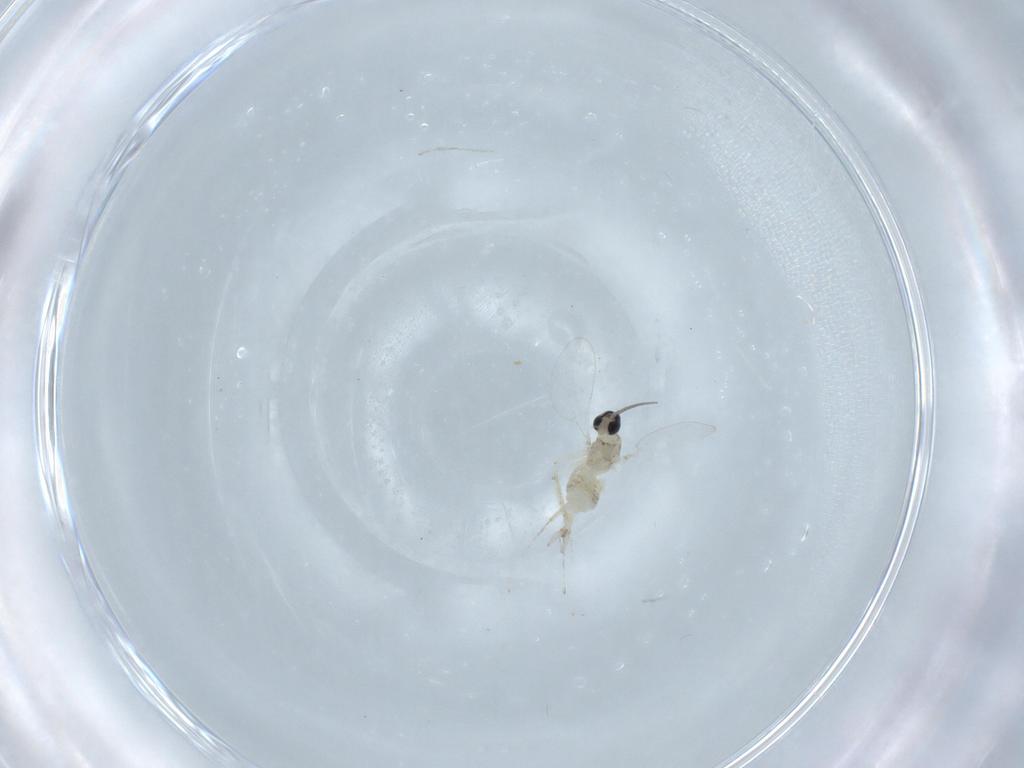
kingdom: Animalia
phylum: Arthropoda
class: Insecta
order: Diptera
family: Cecidomyiidae
